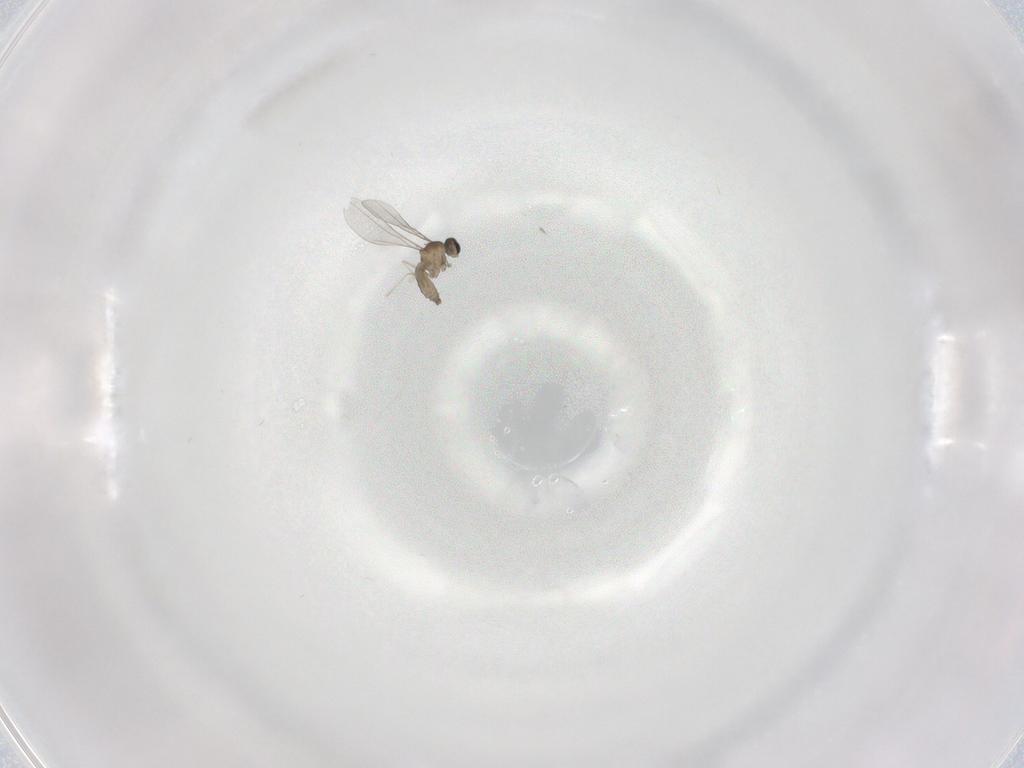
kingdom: Animalia
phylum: Arthropoda
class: Insecta
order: Diptera
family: Cecidomyiidae
